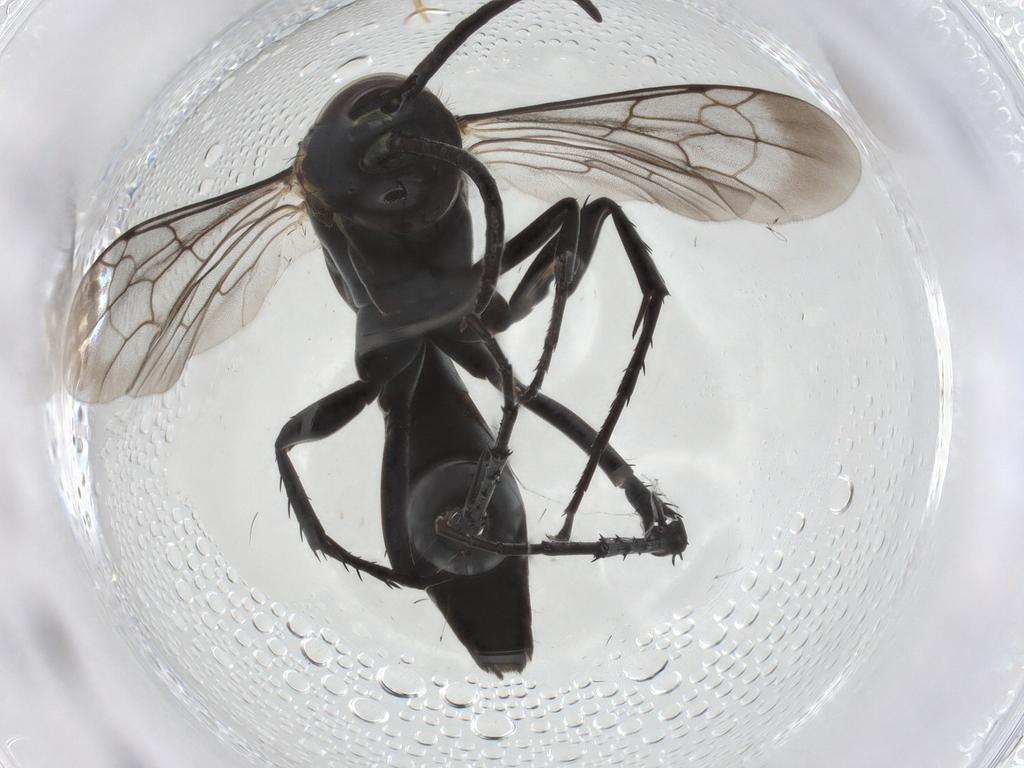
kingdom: Animalia
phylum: Arthropoda
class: Insecta
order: Hymenoptera
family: Pompilidae
